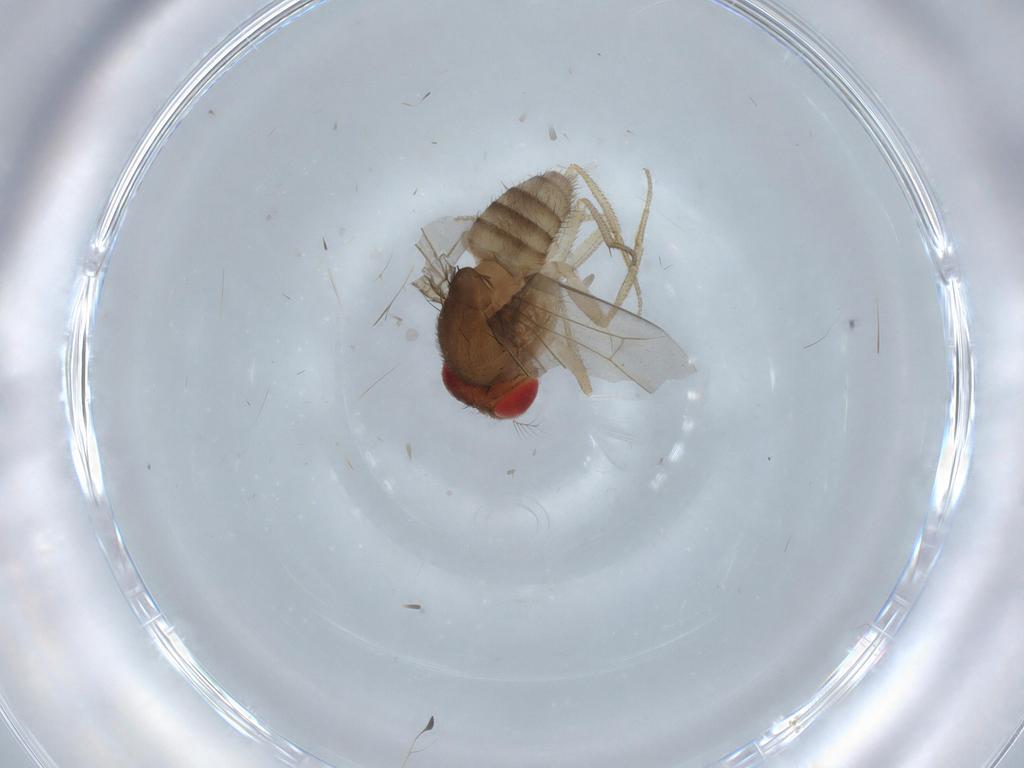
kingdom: Animalia
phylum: Arthropoda
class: Insecta
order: Diptera
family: Drosophilidae
